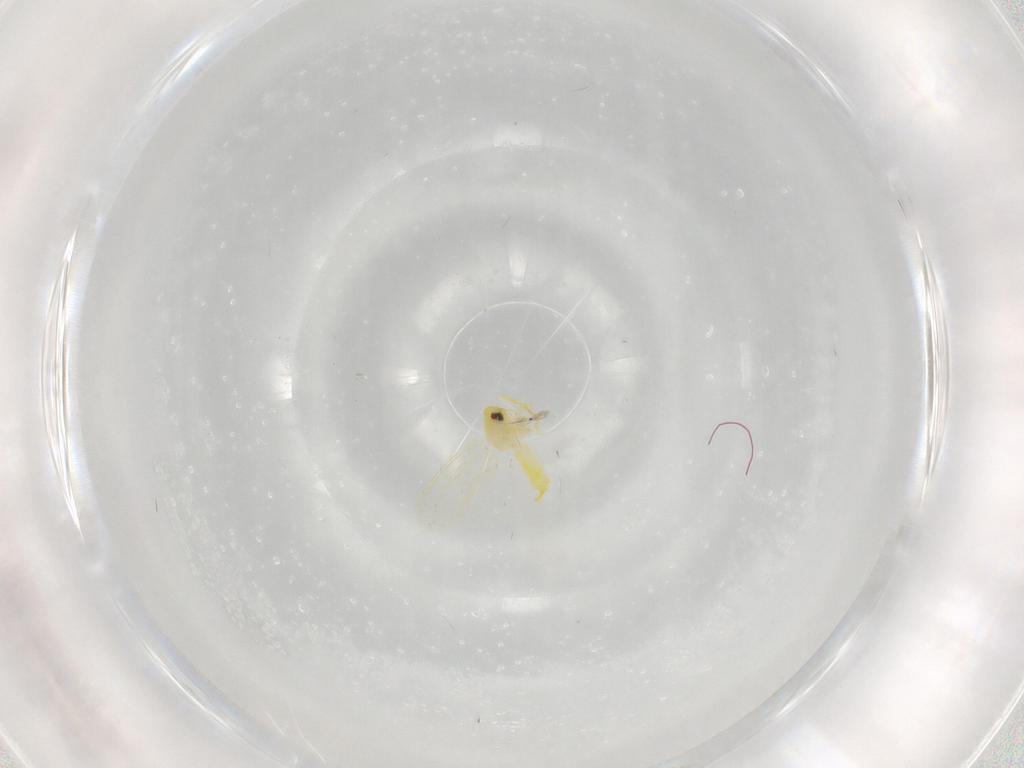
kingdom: Animalia
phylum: Arthropoda
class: Insecta
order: Hemiptera
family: Aleyrodidae
